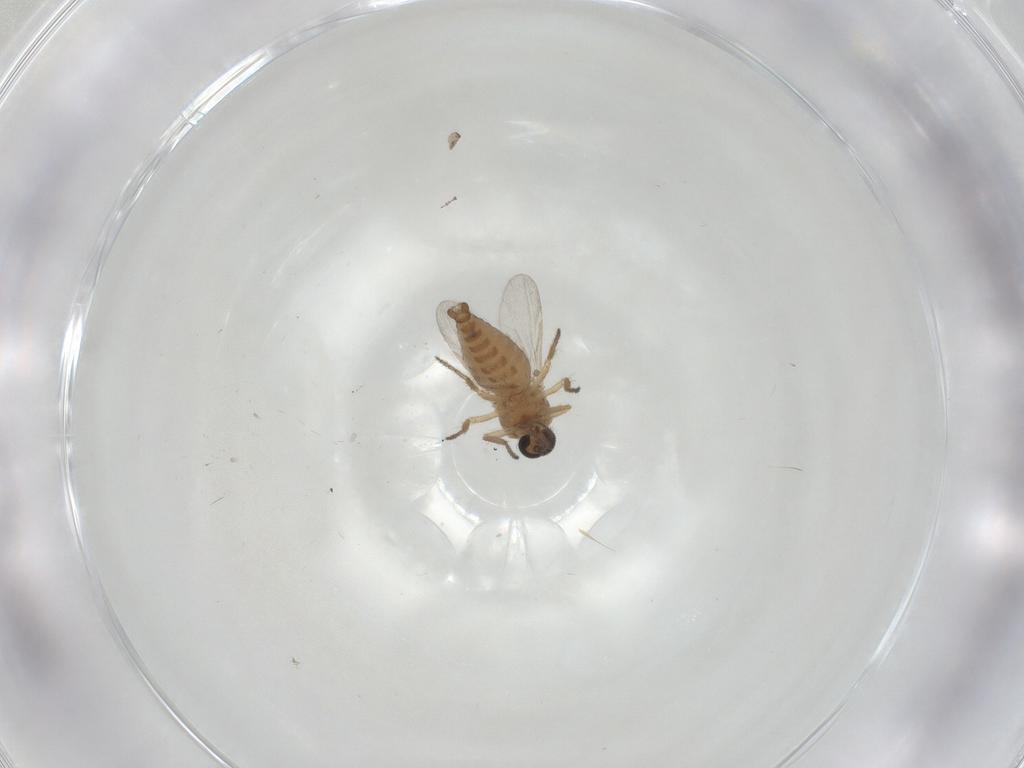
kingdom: Animalia
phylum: Arthropoda
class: Insecta
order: Diptera
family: Ceratopogonidae
